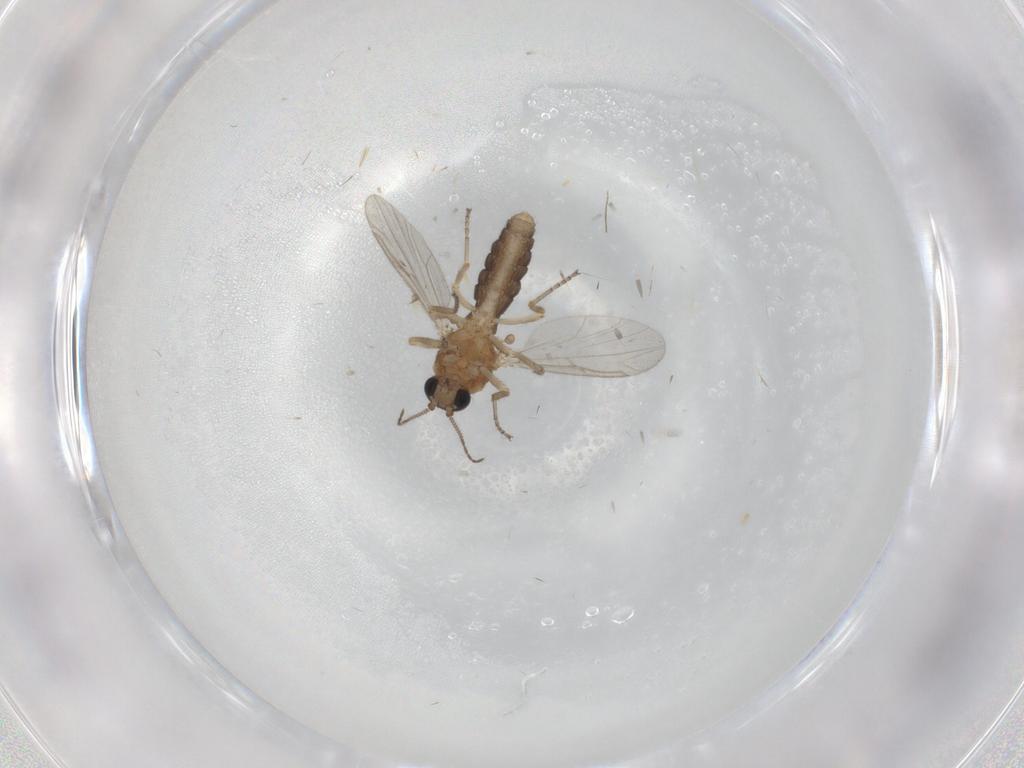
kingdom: Animalia
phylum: Arthropoda
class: Insecta
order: Diptera
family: Ceratopogonidae
